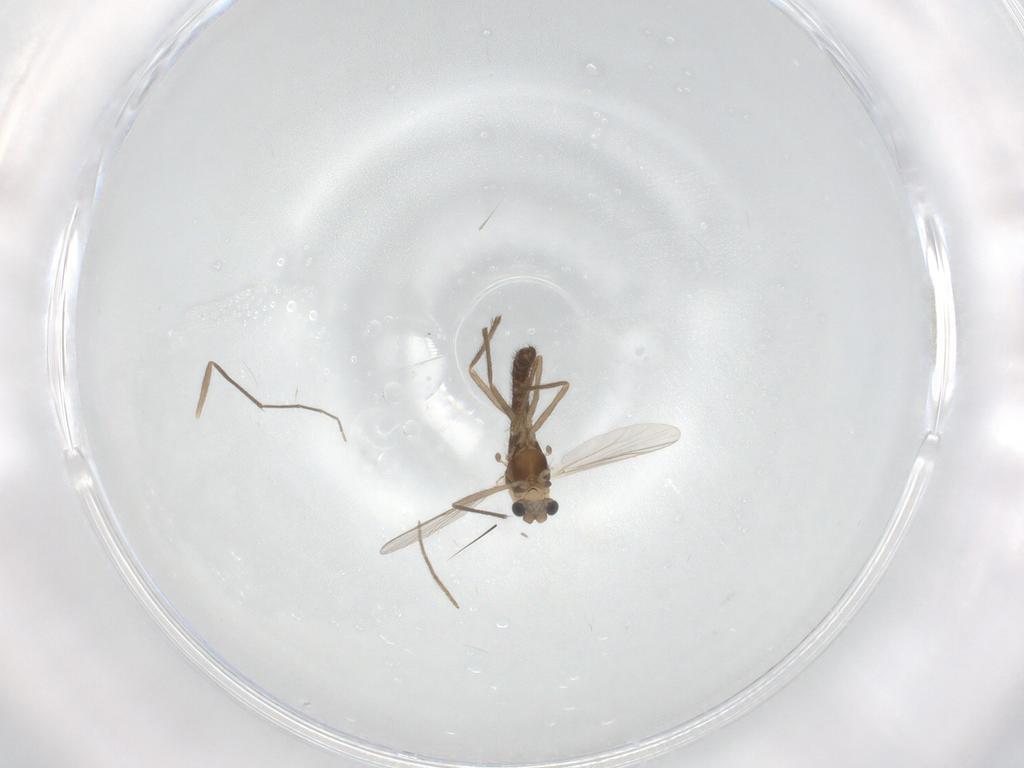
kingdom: Animalia
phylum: Arthropoda
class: Insecta
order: Diptera
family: Chironomidae
